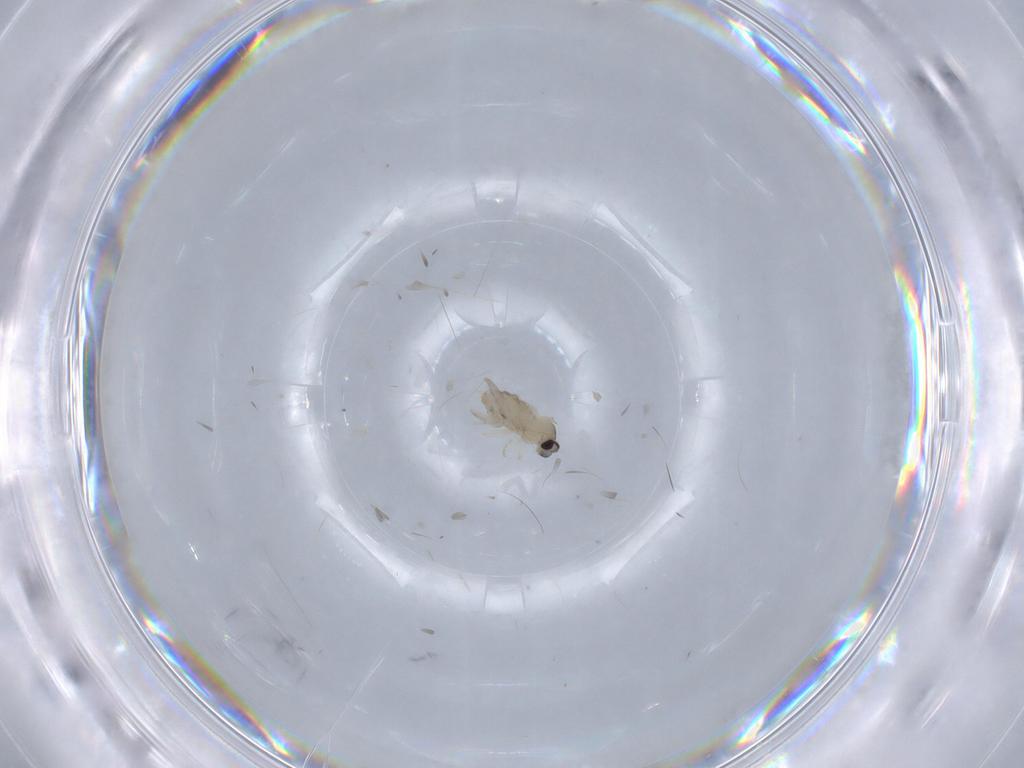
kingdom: Animalia
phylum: Arthropoda
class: Insecta
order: Diptera
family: Cecidomyiidae
